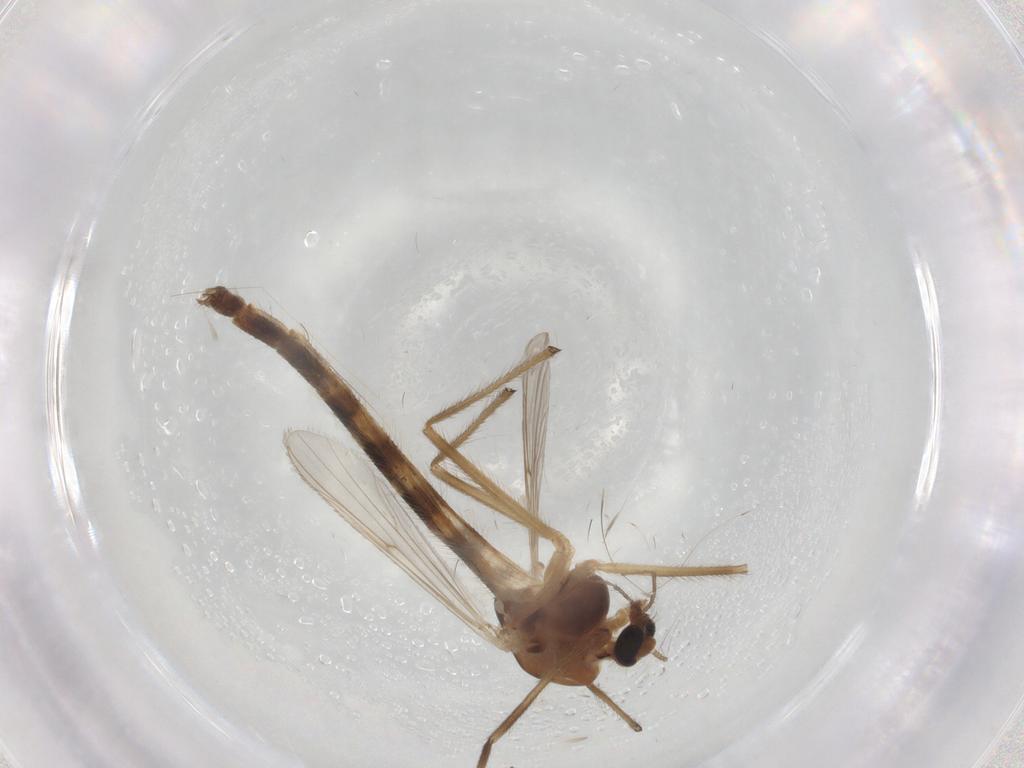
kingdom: Animalia
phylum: Arthropoda
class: Insecta
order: Diptera
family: Chironomidae
